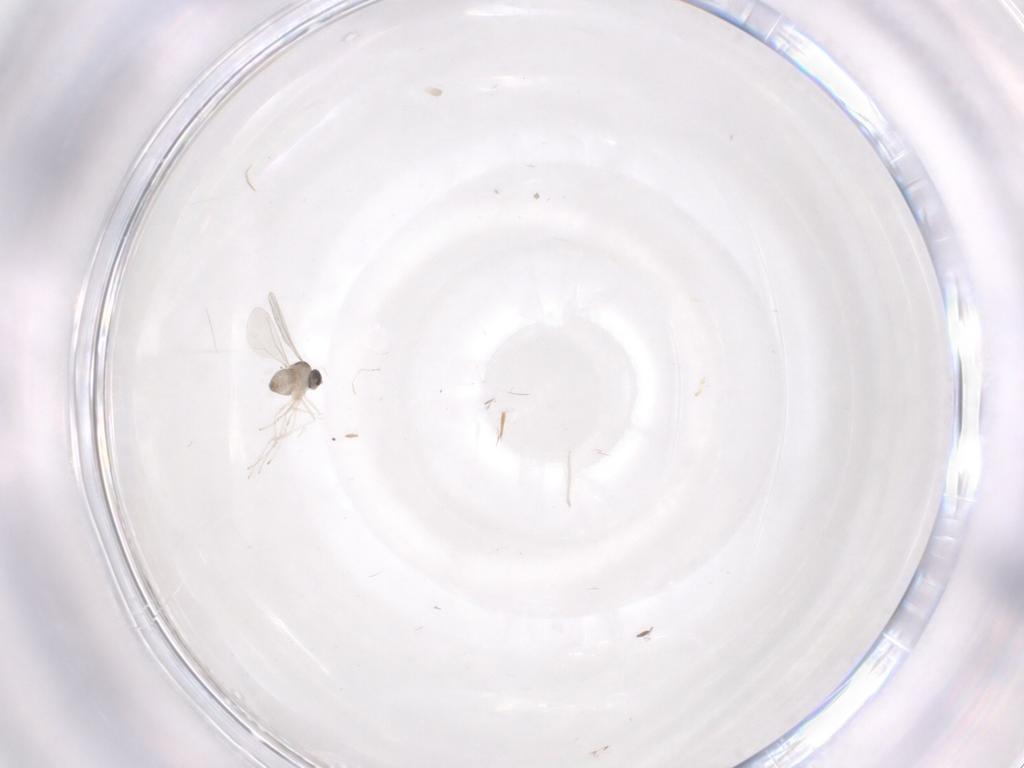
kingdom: Animalia
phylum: Arthropoda
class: Insecta
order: Diptera
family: Cecidomyiidae
